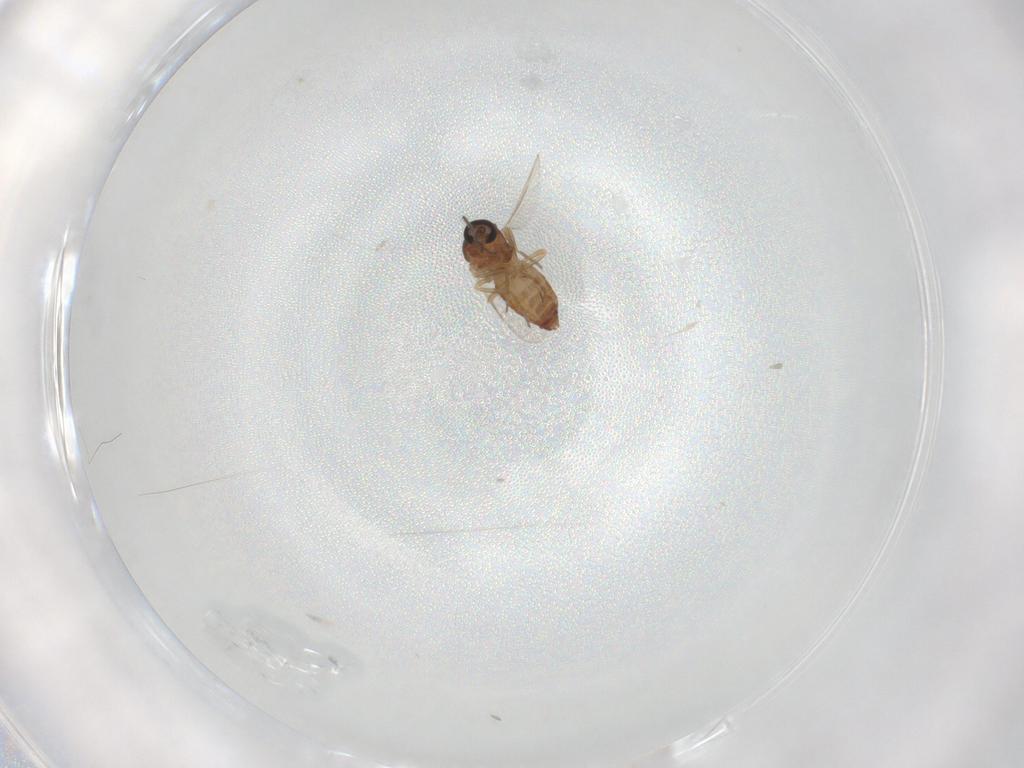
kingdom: Animalia
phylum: Arthropoda
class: Insecta
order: Diptera
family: Ceratopogonidae
